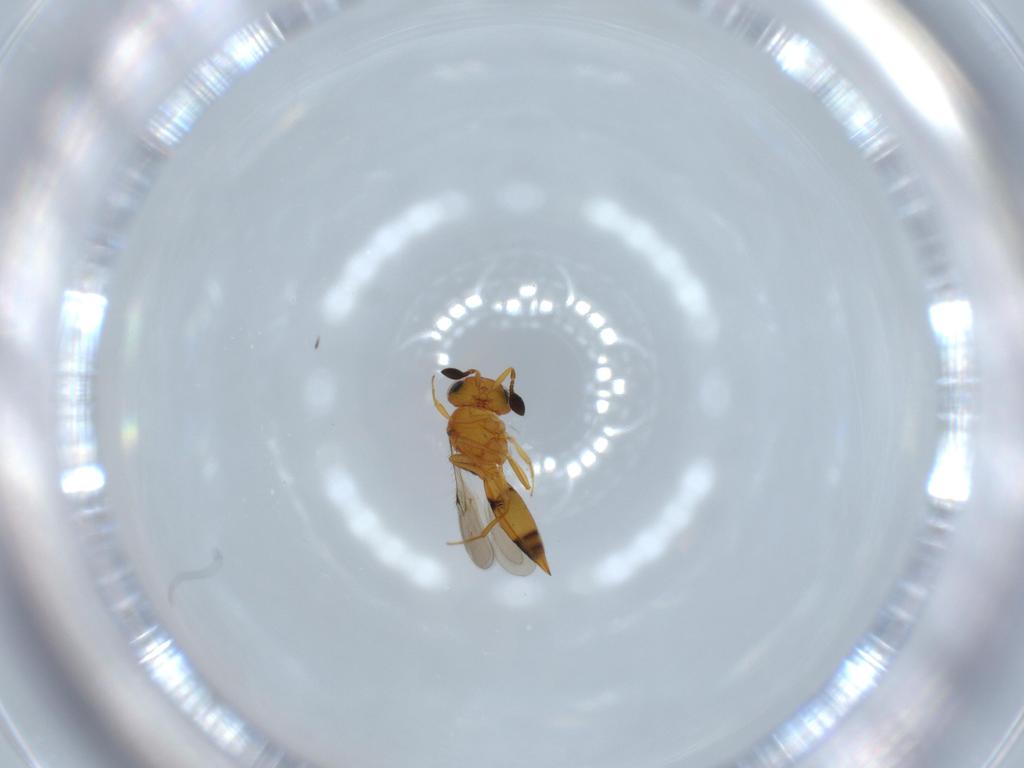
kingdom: Animalia
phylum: Arthropoda
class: Insecta
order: Hymenoptera
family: Scelionidae
